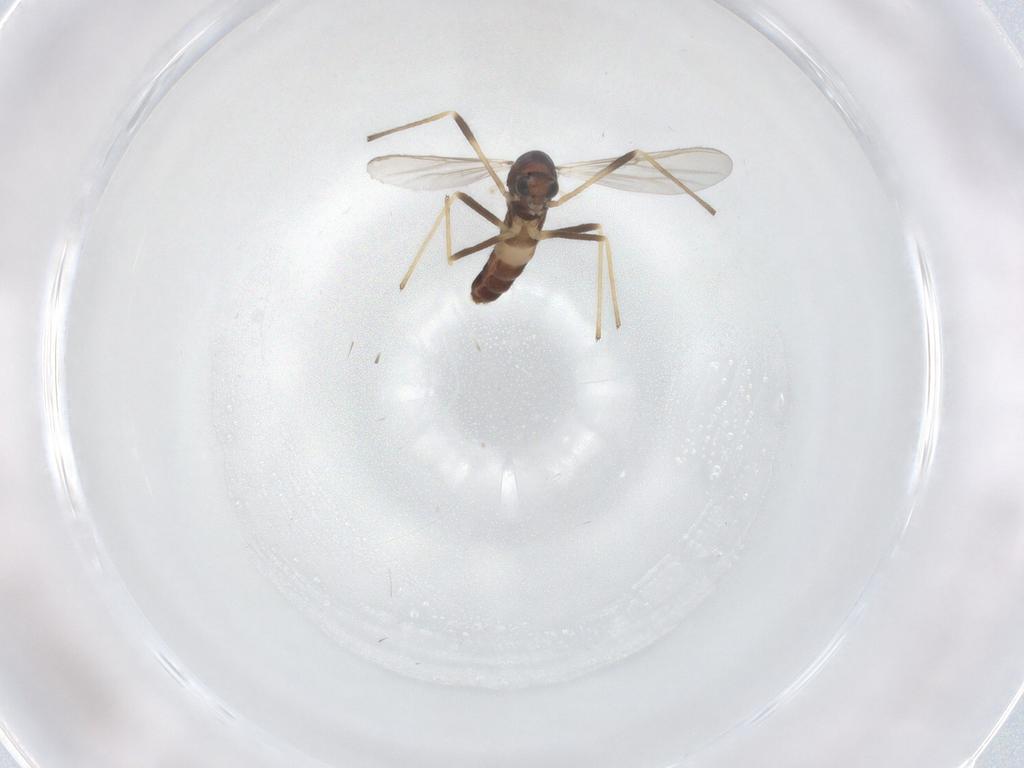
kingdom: Animalia
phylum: Arthropoda
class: Insecta
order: Diptera
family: Chironomidae
